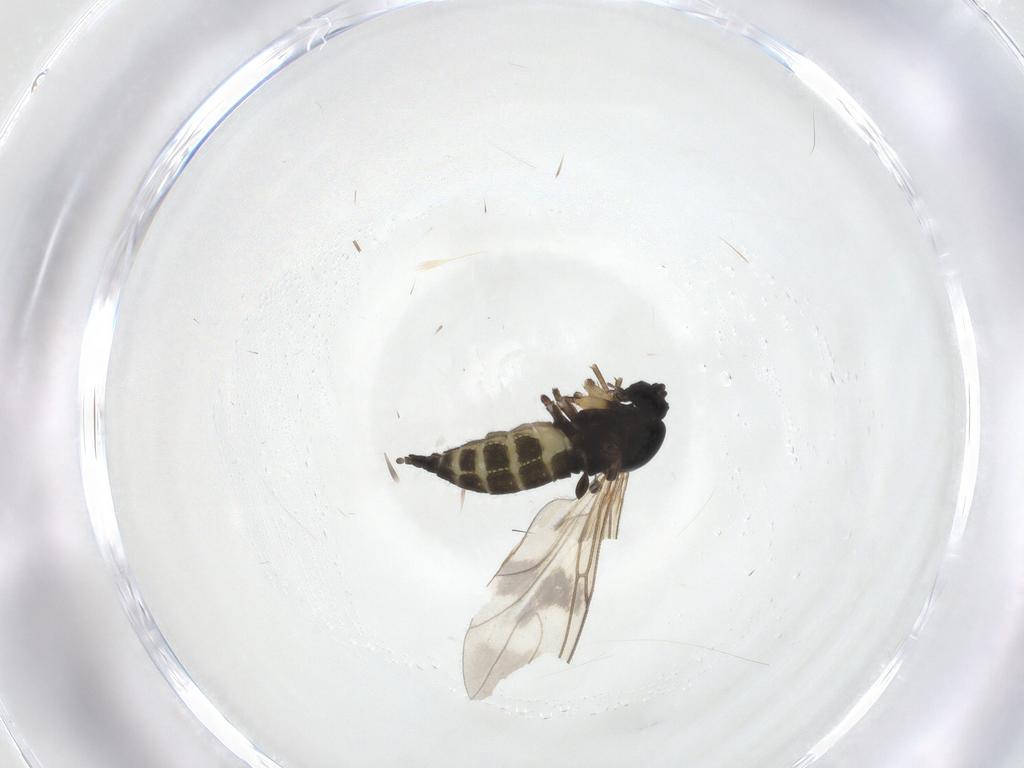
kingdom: Animalia
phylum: Arthropoda
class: Insecta
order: Diptera
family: Sciaridae
